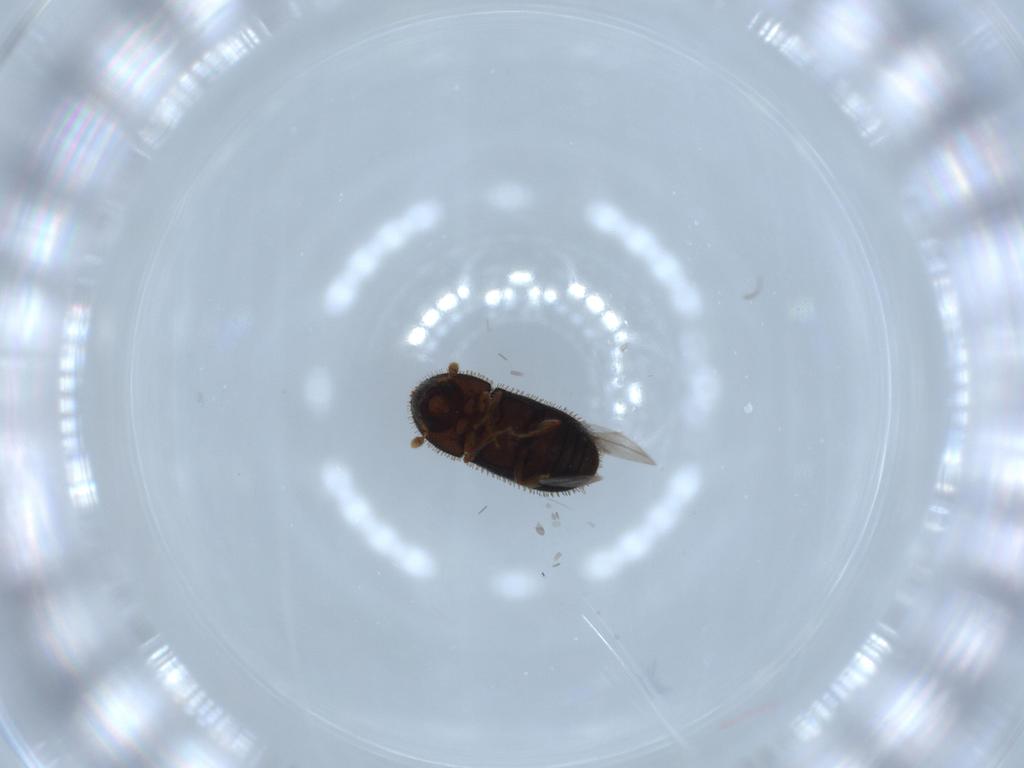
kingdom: Animalia
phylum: Arthropoda
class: Insecta
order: Coleoptera
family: Curculionidae
